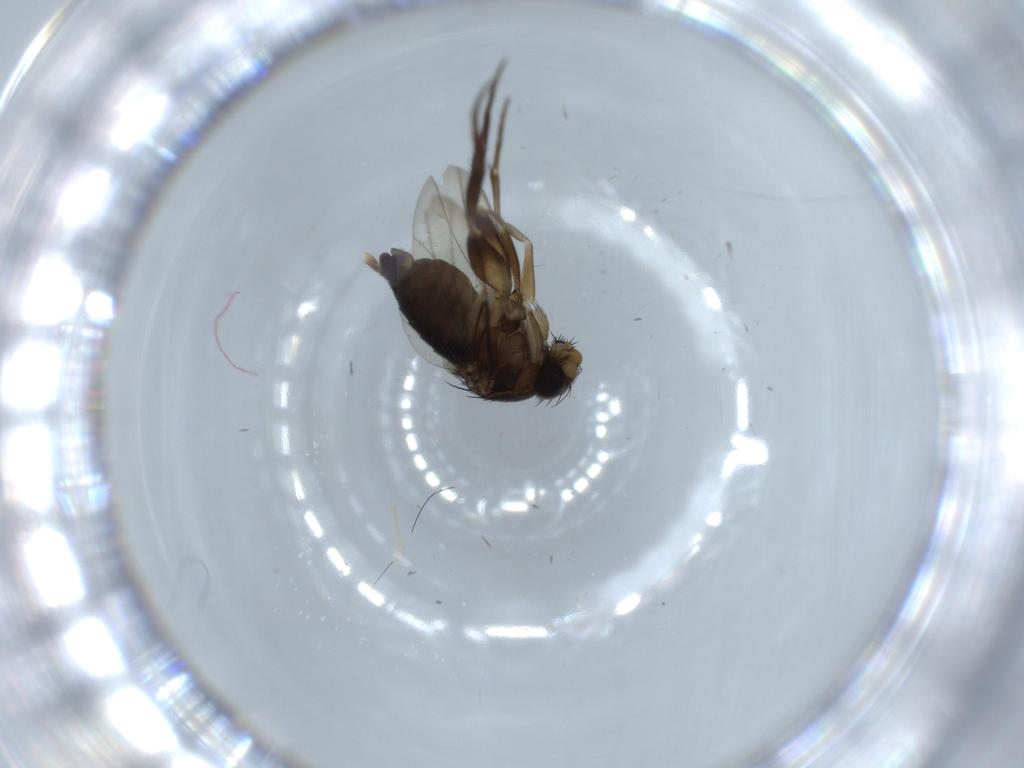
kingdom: Animalia
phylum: Arthropoda
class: Insecta
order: Diptera
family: Phoridae
